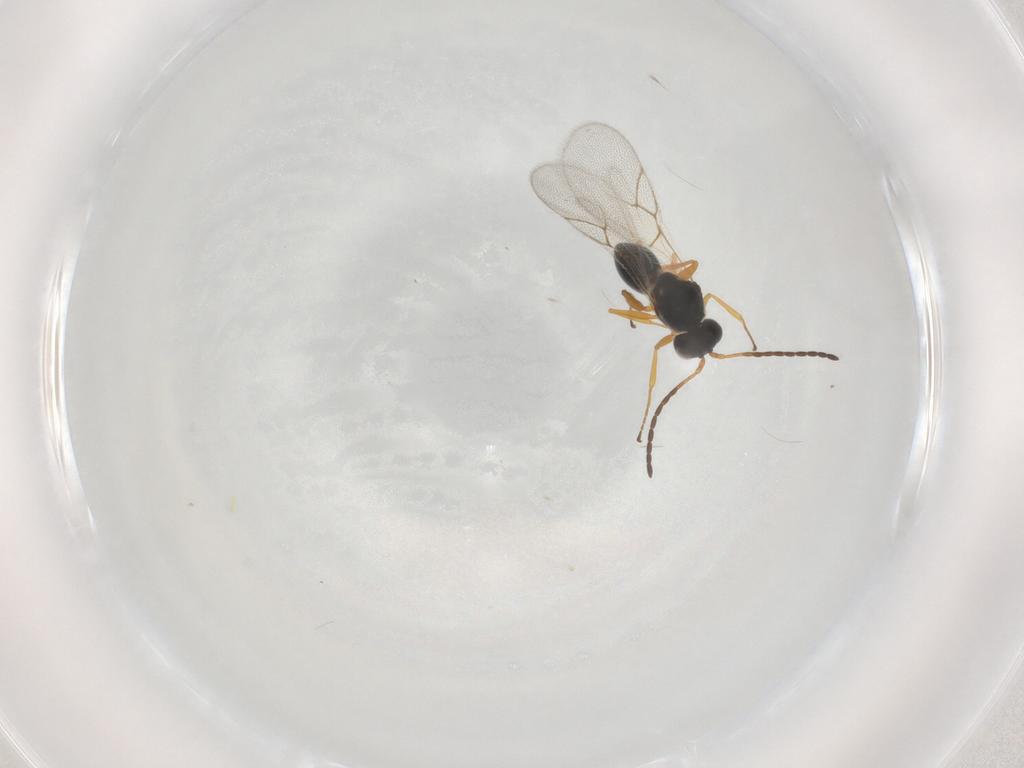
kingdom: Animalia
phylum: Arthropoda
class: Insecta
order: Hymenoptera
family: Figitidae
